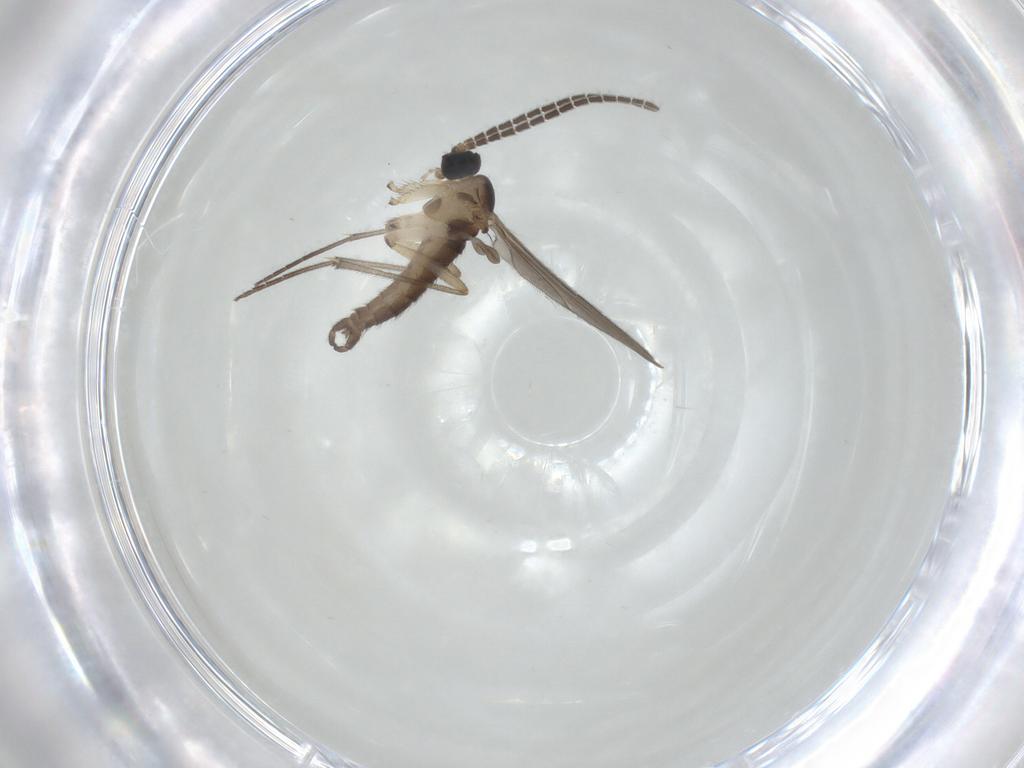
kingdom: Animalia
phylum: Arthropoda
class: Insecta
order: Diptera
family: Sciaridae
